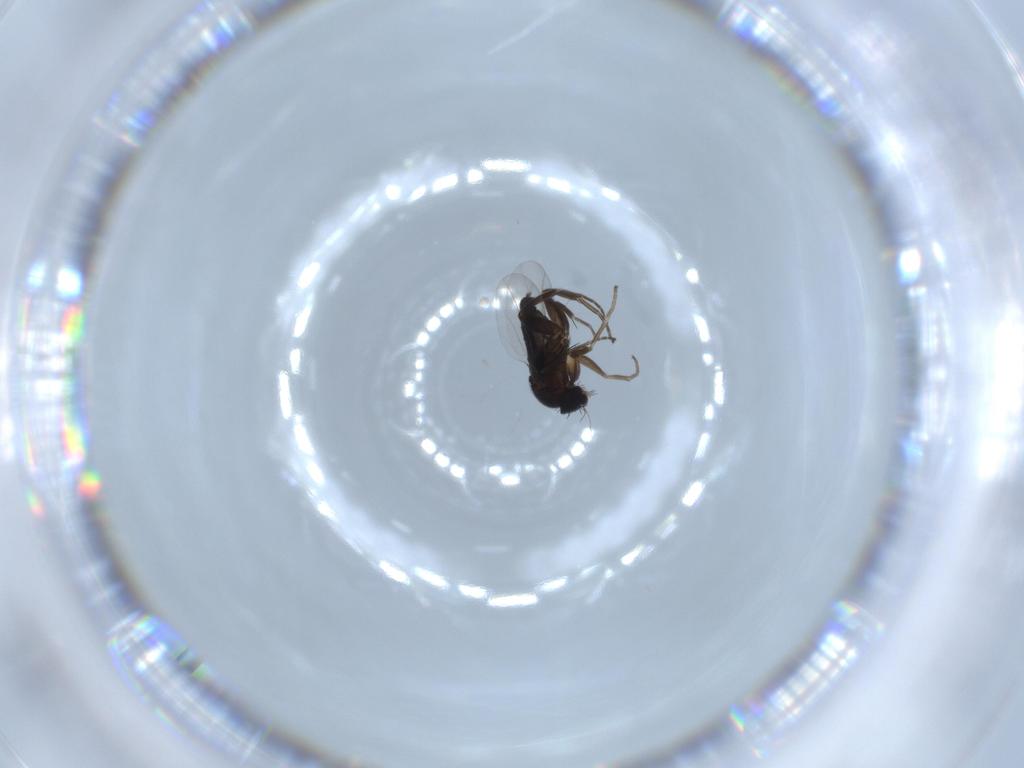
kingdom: Animalia
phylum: Arthropoda
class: Insecta
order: Diptera
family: Phoridae
